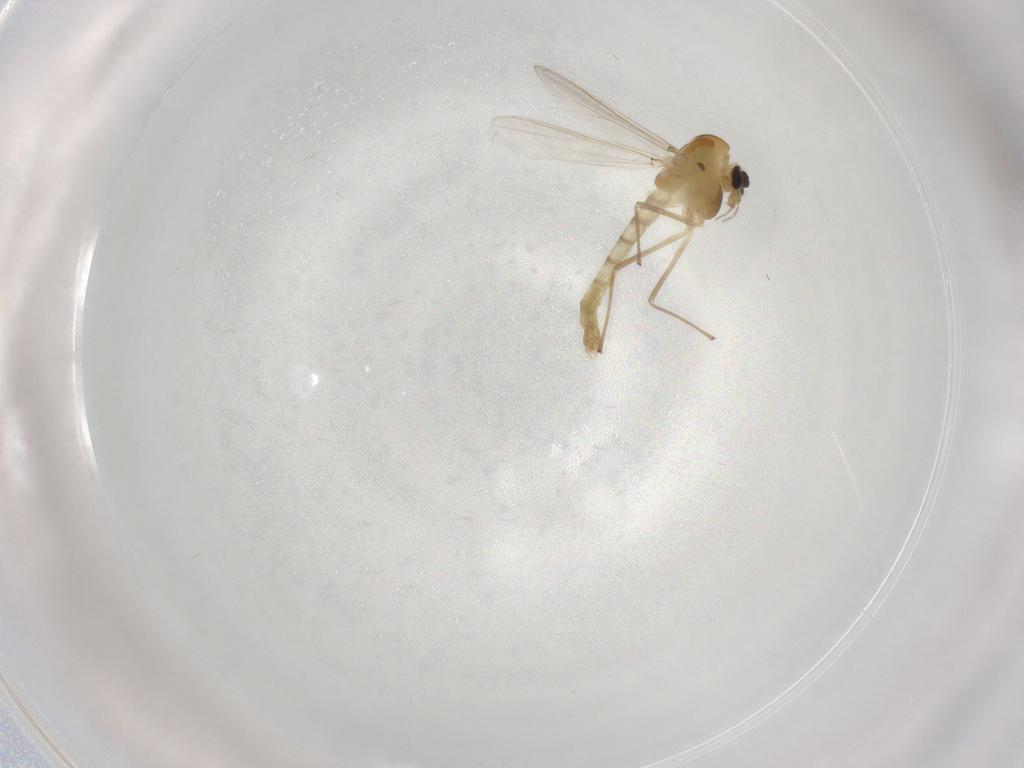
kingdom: Animalia
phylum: Arthropoda
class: Insecta
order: Diptera
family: Chironomidae
